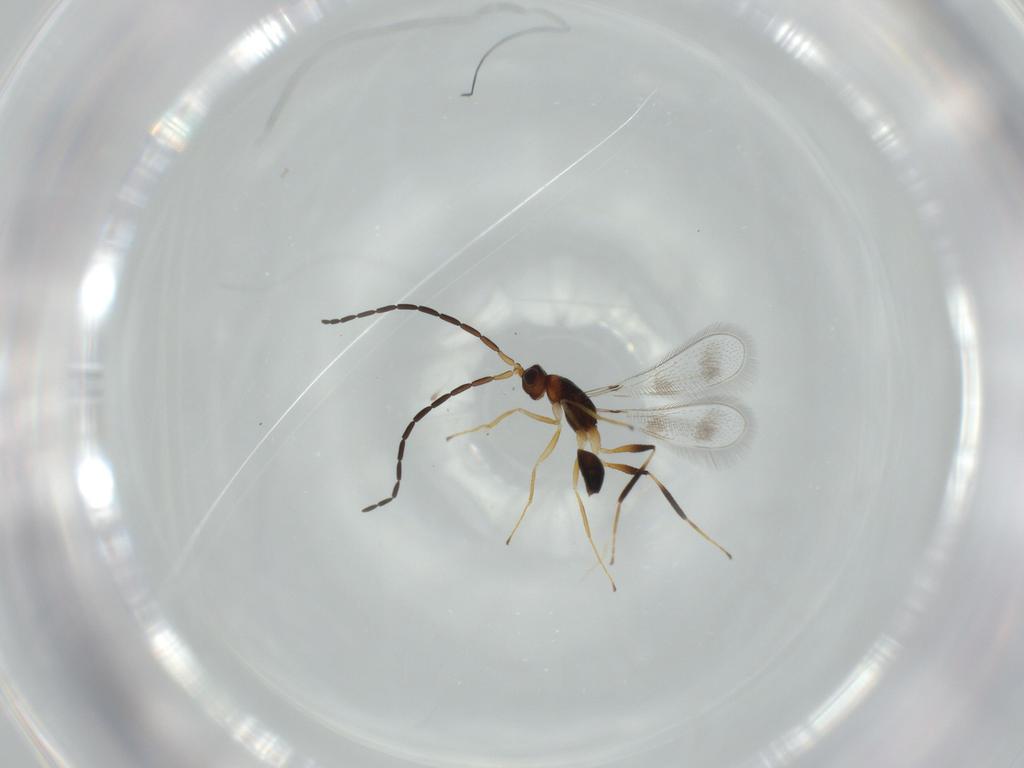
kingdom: Animalia
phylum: Arthropoda
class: Insecta
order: Hymenoptera
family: Mymaridae
